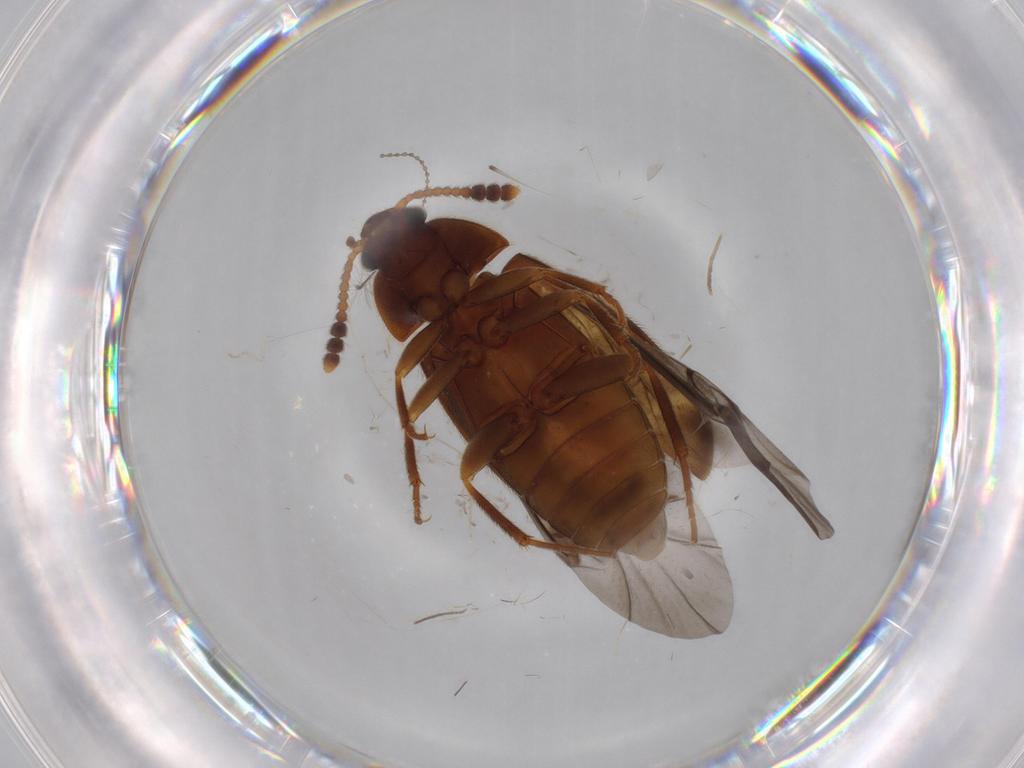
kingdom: Animalia
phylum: Arthropoda
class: Insecta
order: Coleoptera
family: Mycetophagidae
